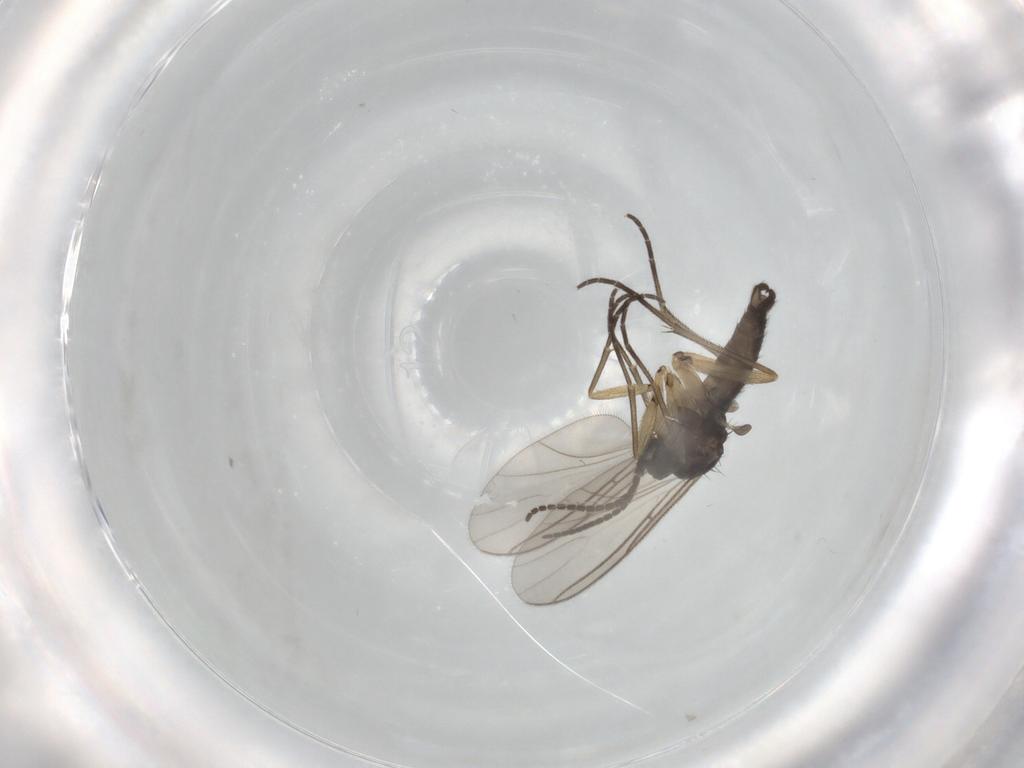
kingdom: Animalia
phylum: Arthropoda
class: Insecta
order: Diptera
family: Sciaridae
